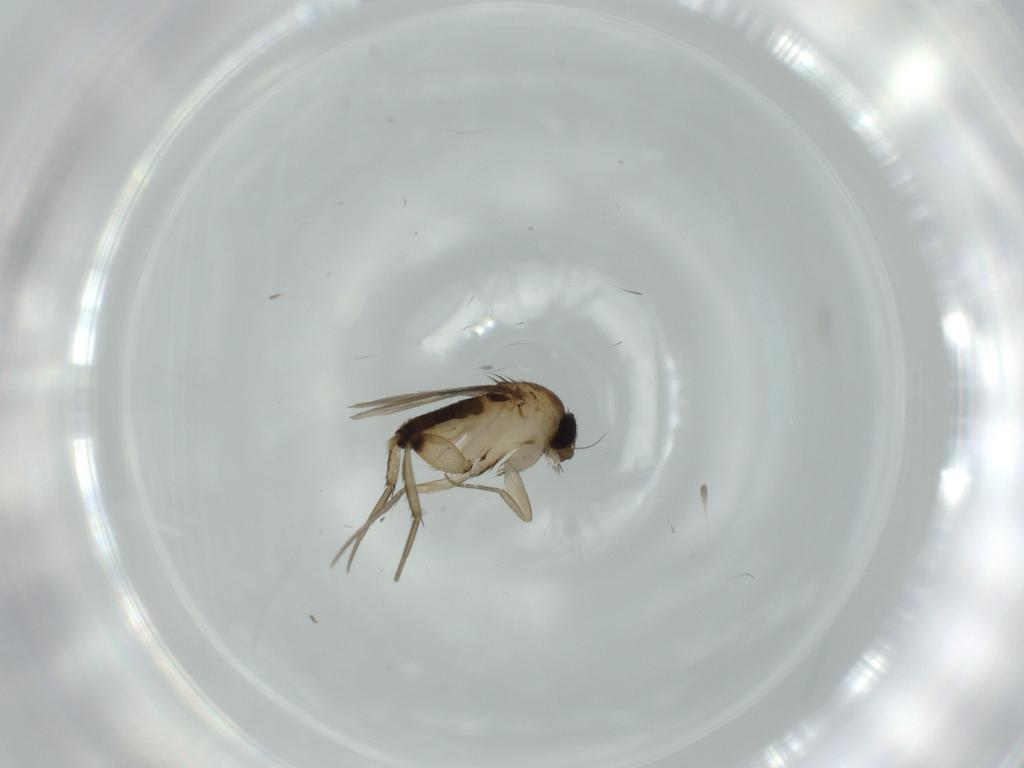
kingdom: Animalia
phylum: Arthropoda
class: Insecta
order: Diptera
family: Phoridae
